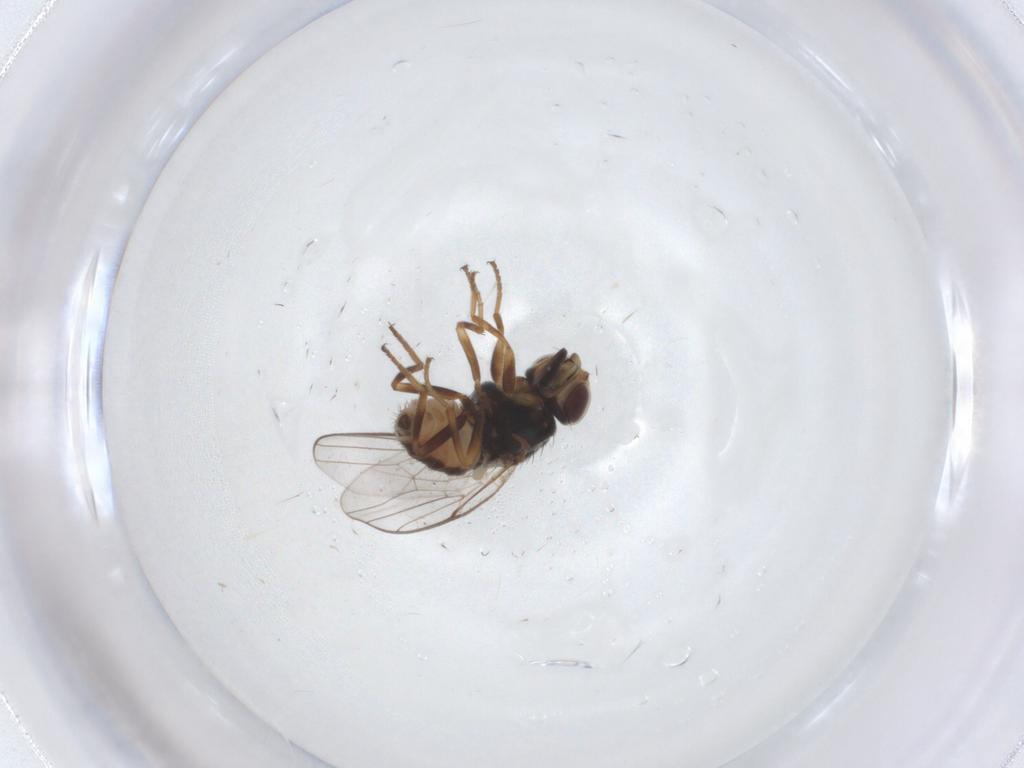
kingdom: Animalia
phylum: Arthropoda
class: Insecta
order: Diptera
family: Chloropidae
